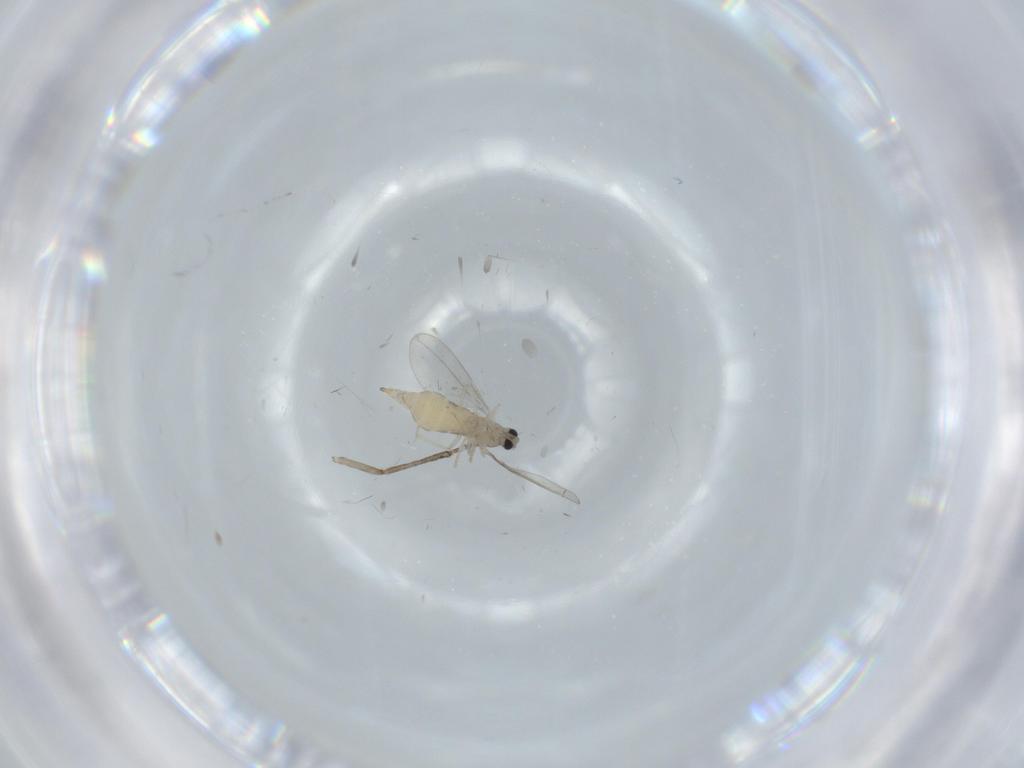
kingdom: Animalia
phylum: Arthropoda
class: Insecta
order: Diptera
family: Cecidomyiidae
